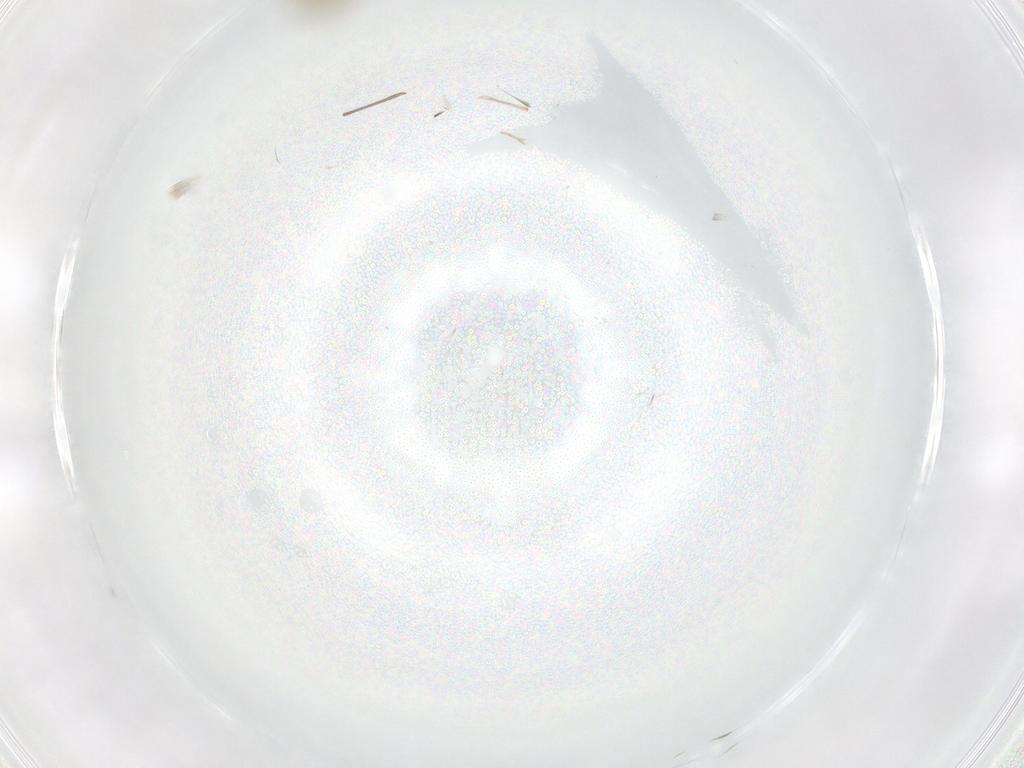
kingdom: Animalia
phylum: Arthropoda
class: Insecta
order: Diptera
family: Chironomidae
